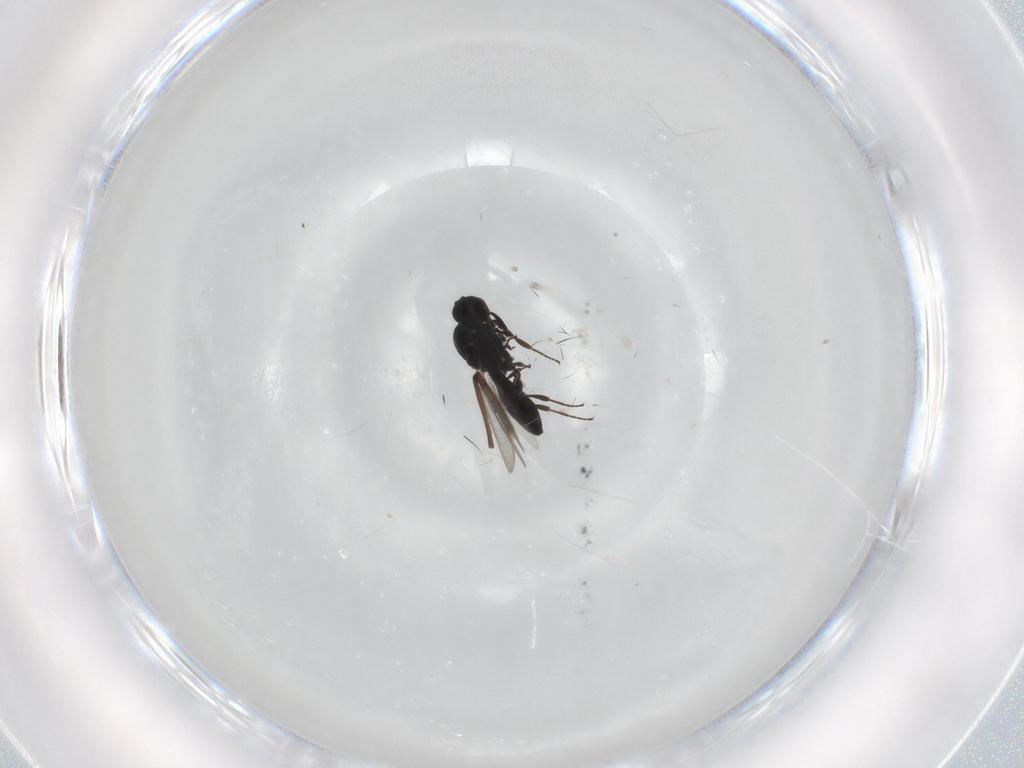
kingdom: Animalia
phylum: Arthropoda
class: Insecta
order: Hymenoptera
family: Platygastridae
